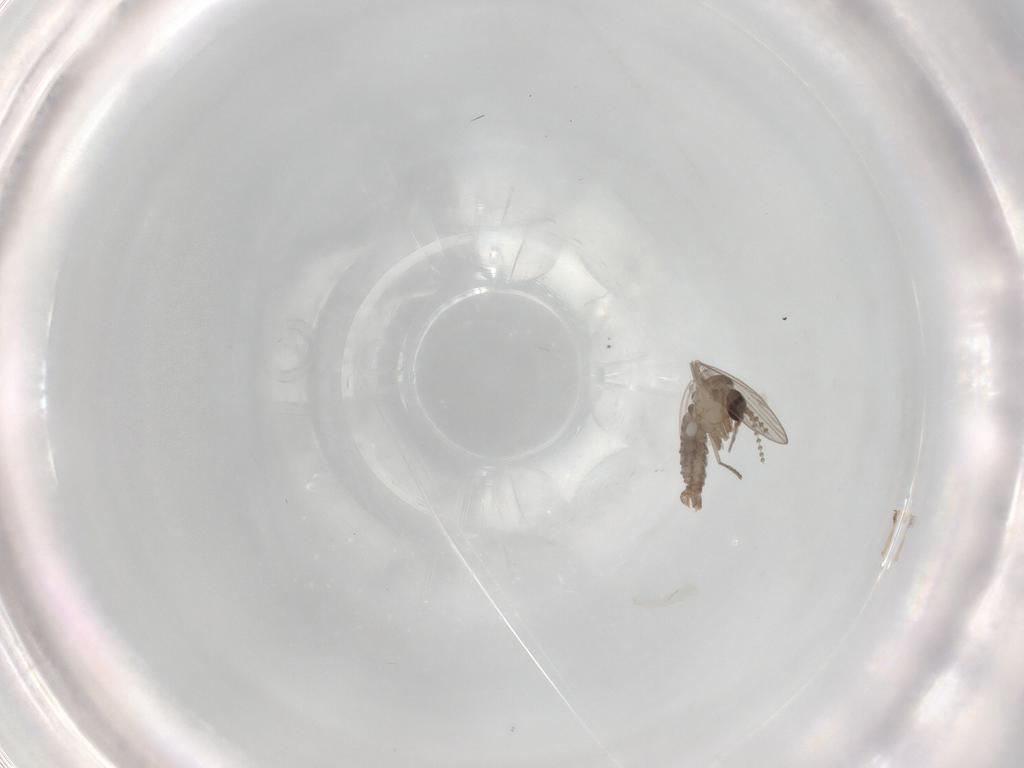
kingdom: Animalia
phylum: Arthropoda
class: Insecta
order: Diptera
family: Psychodidae
